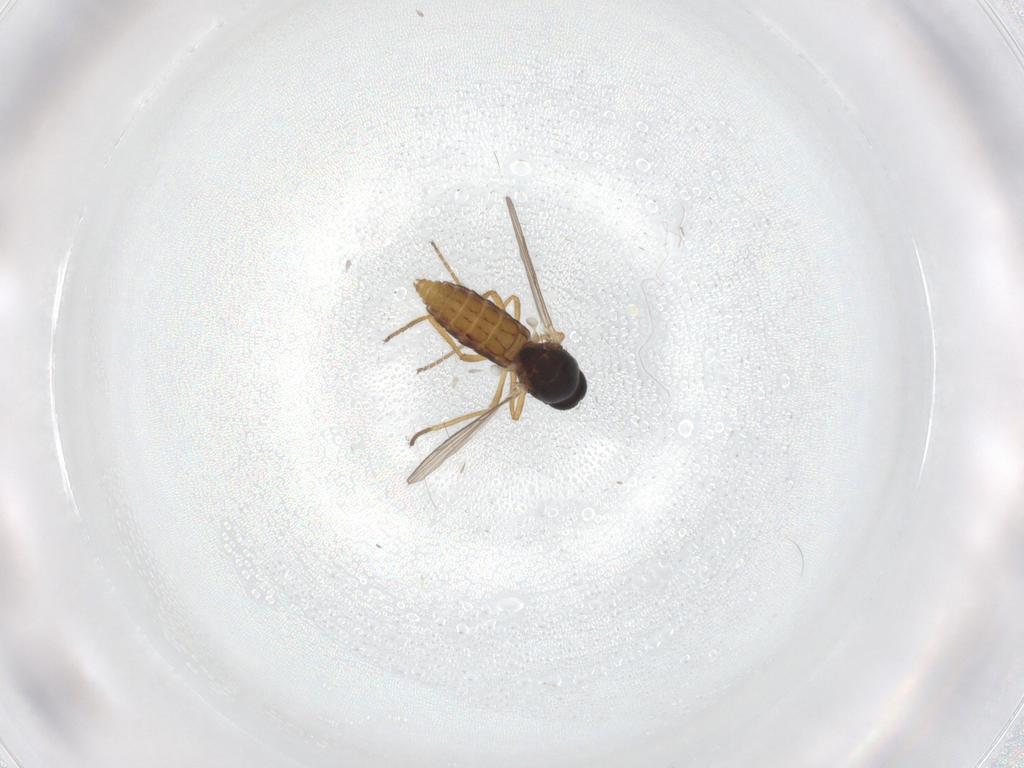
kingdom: Animalia
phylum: Arthropoda
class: Insecta
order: Diptera
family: Ceratopogonidae
